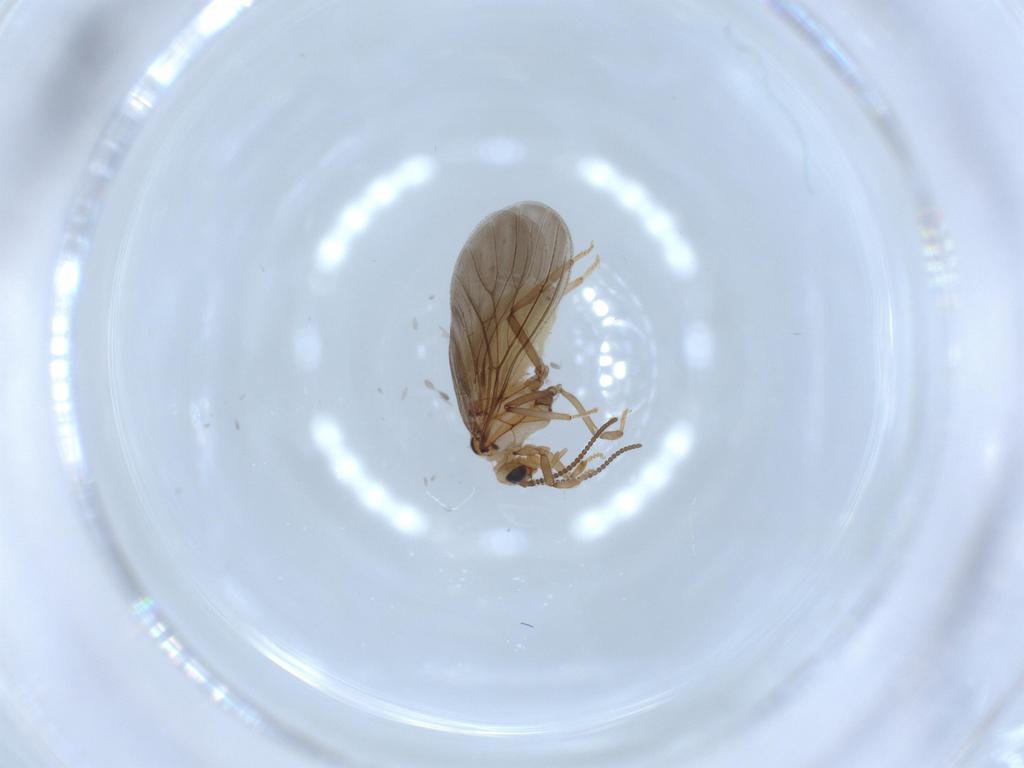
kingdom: Animalia
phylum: Arthropoda
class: Insecta
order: Neuroptera
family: Coniopterygidae
